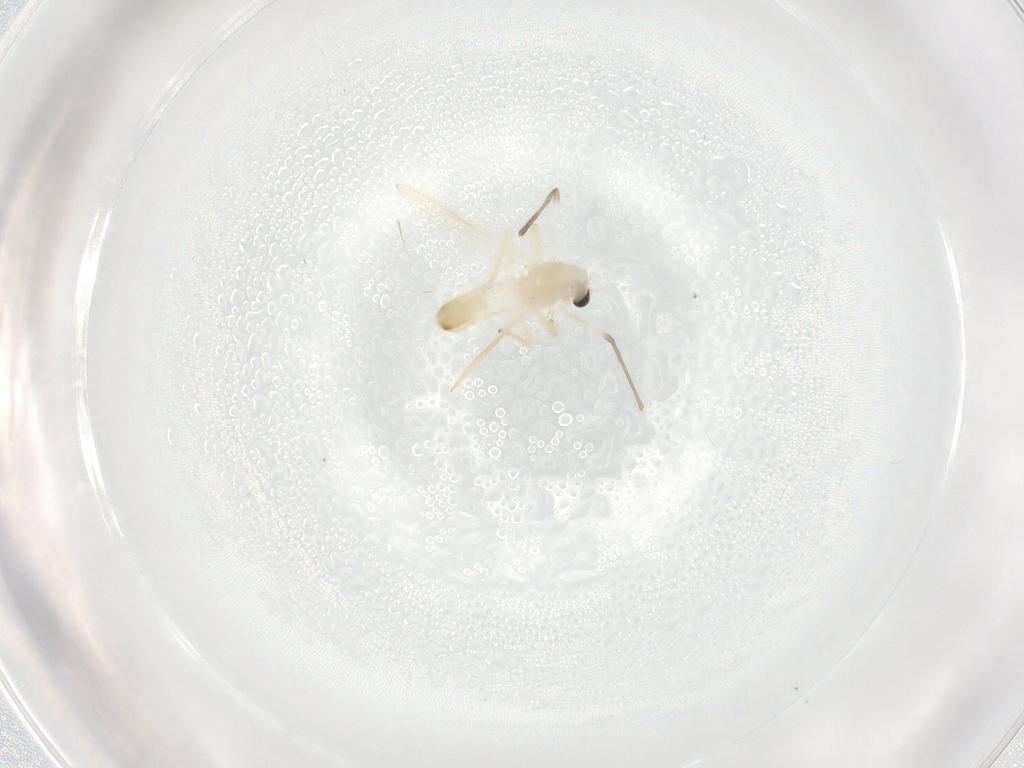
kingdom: Animalia
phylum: Arthropoda
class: Insecta
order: Diptera
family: Chironomidae
